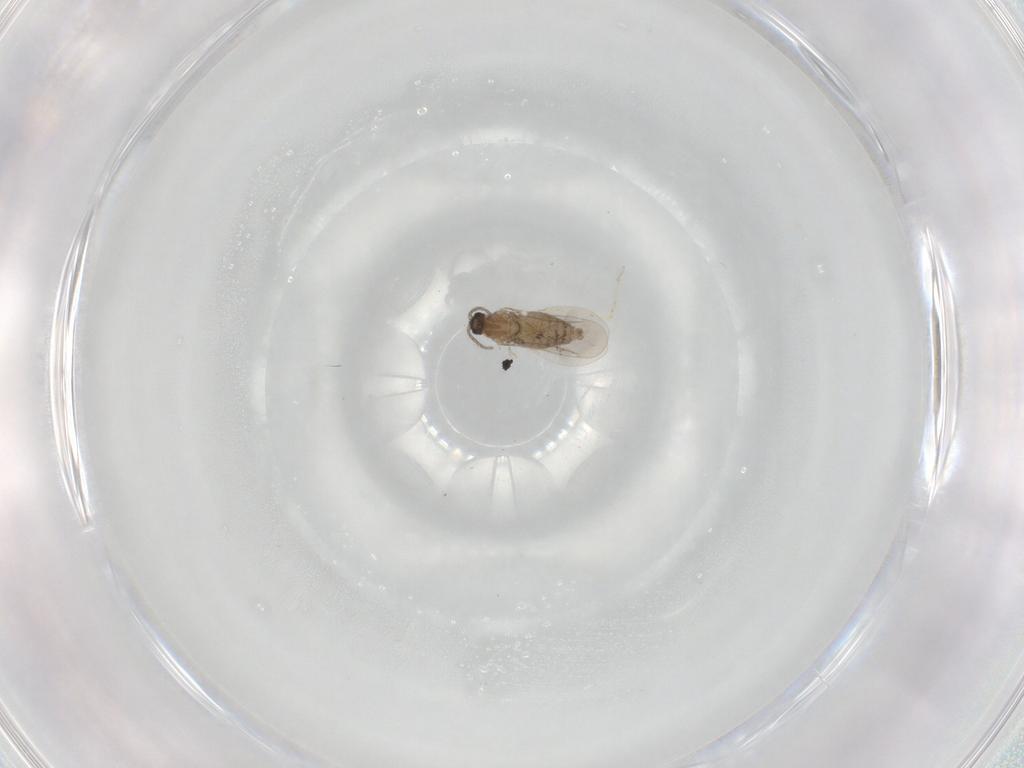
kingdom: Animalia
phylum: Arthropoda
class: Insecta
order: Diptera
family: Cecidomyiidae
